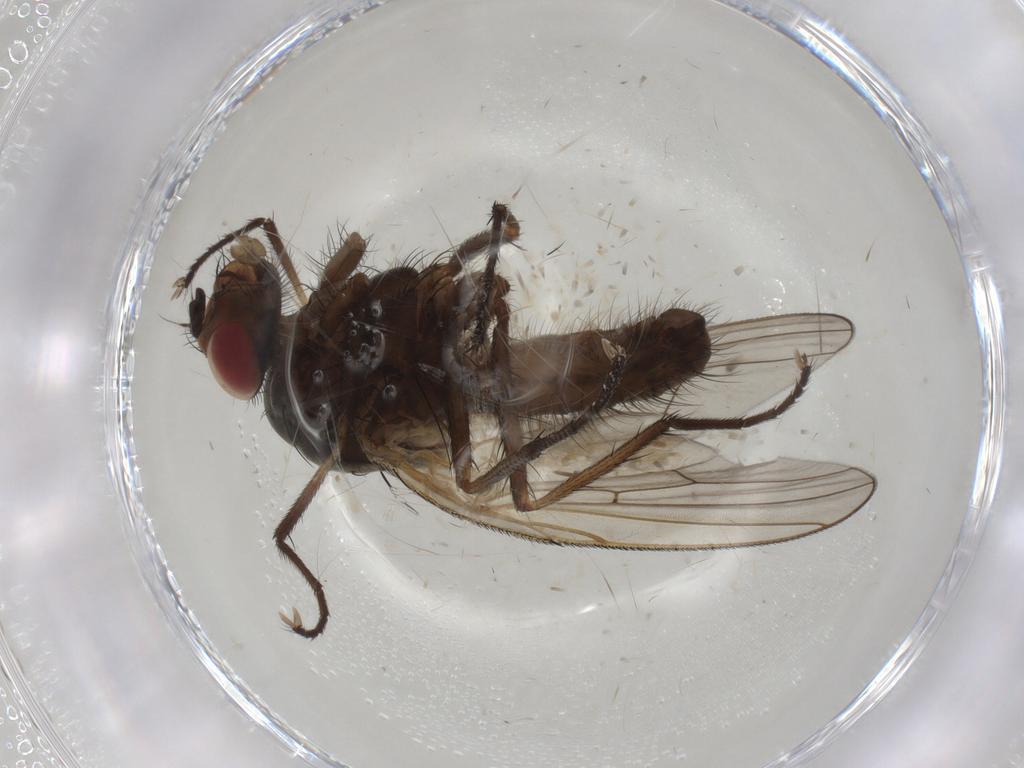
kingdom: Animalia
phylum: Arthropoda
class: Insecta
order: Diptera
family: Anthomyiidae
